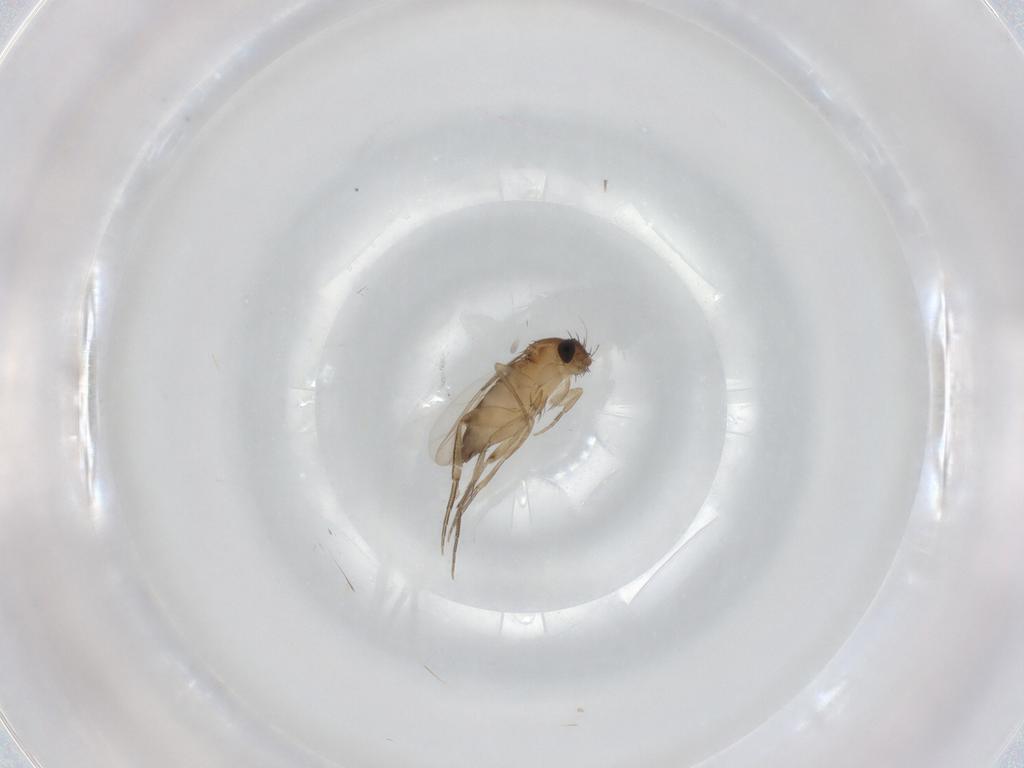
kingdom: Animalia
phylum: Arthropoda
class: Insecta
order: Diptera
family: Phoridae
